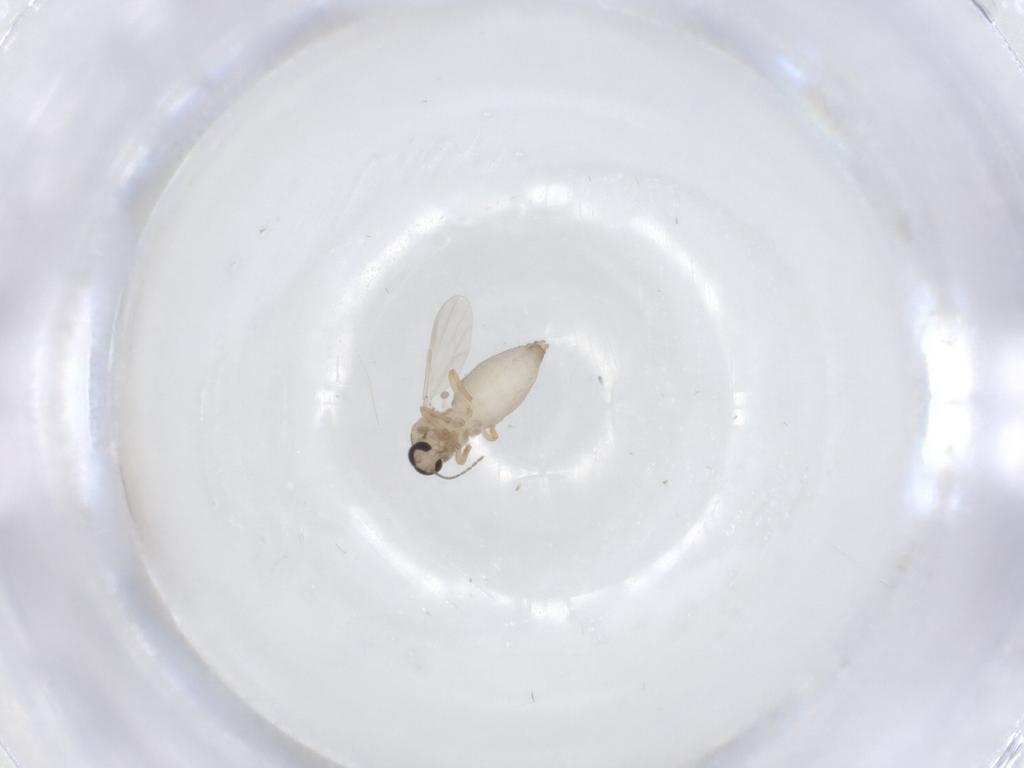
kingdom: Animalia
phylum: Arthropoda
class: Insecta
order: Diptera
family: Ceratopogonidae
